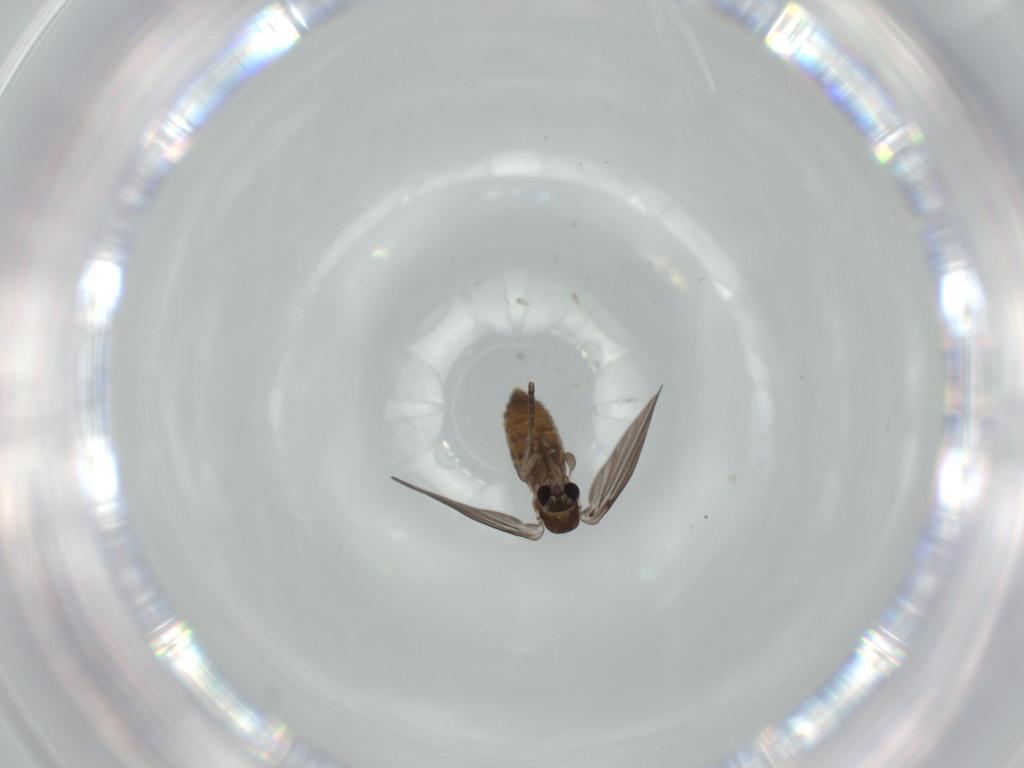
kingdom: Animalia
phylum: Arthropoda
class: Insecta
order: Diptera
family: Psychodidae
